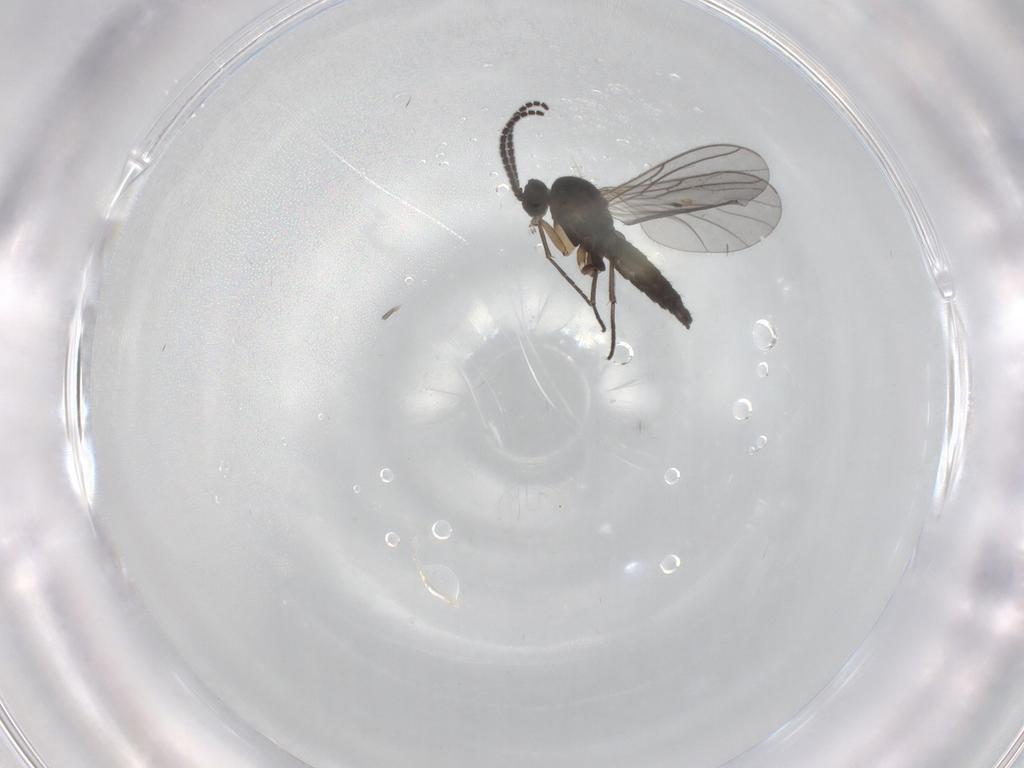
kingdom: Animalia
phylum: Arthropoda
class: Insecta
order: Diptera
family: Sciaridae
